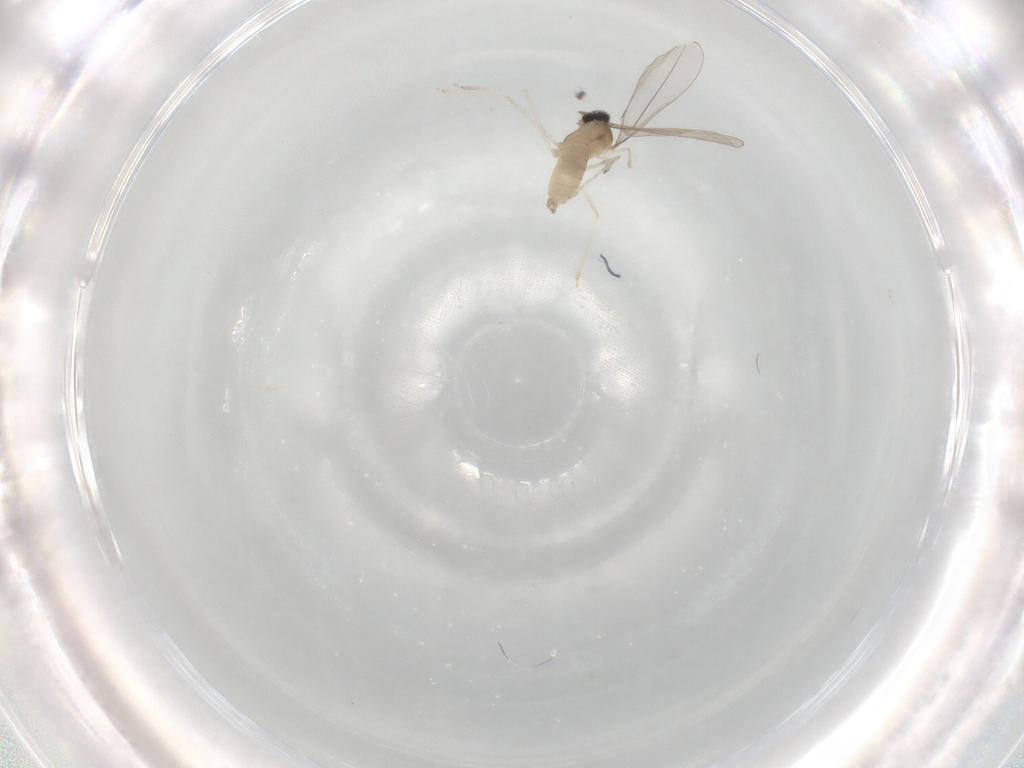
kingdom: Animalia
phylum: Arthropoda
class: Insecta
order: Diptera
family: Cecidomyiidae
